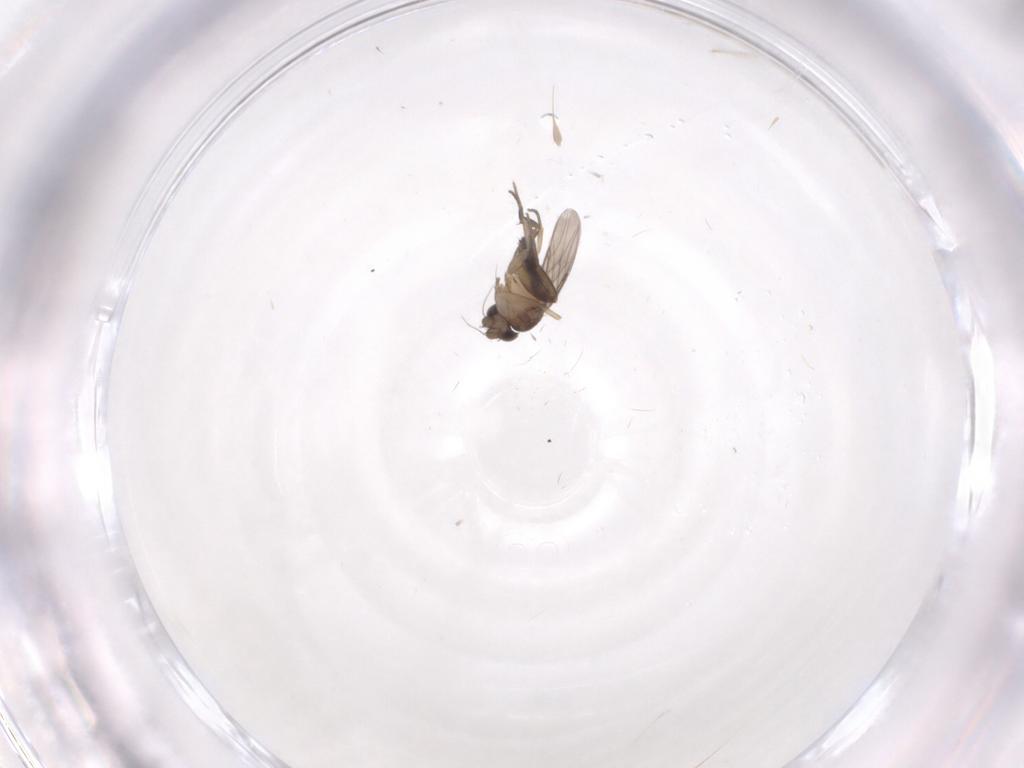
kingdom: Animalia
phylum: Arthropoda
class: Insecta
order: Diptera
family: Phoridae
